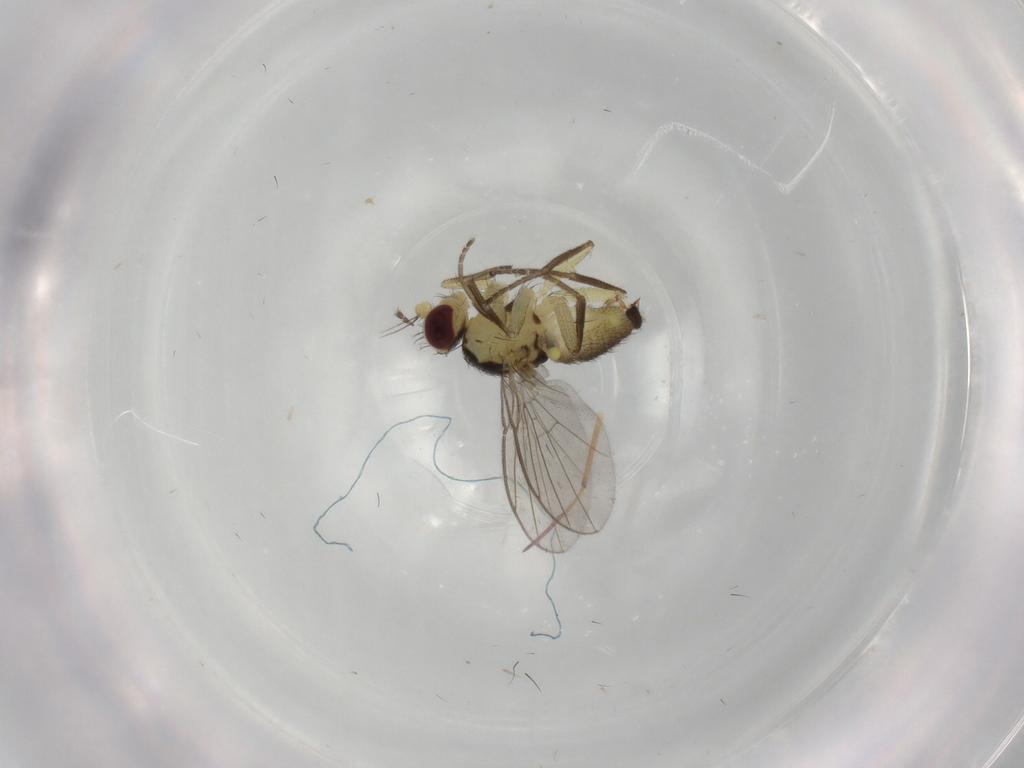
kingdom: Animalia
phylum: Arthropoda
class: Insecta
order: Diptera
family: Agromyzidae
